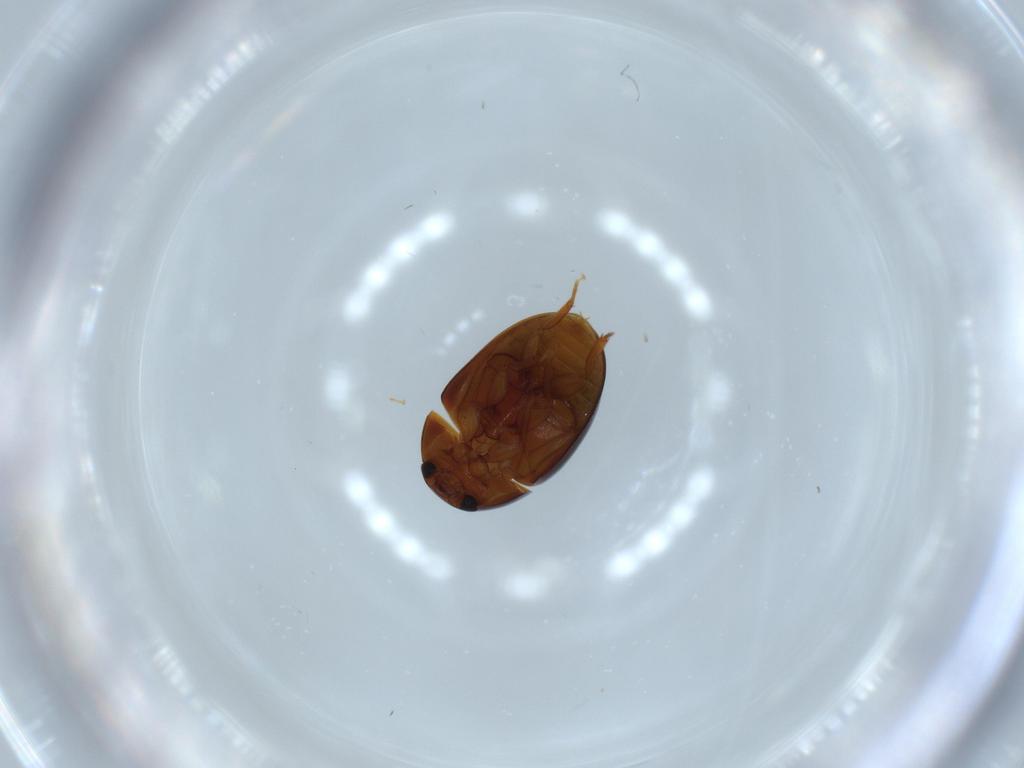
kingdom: Animalia
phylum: Arthropoda
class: Insecta
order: Coleoptera
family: Phalacridae
